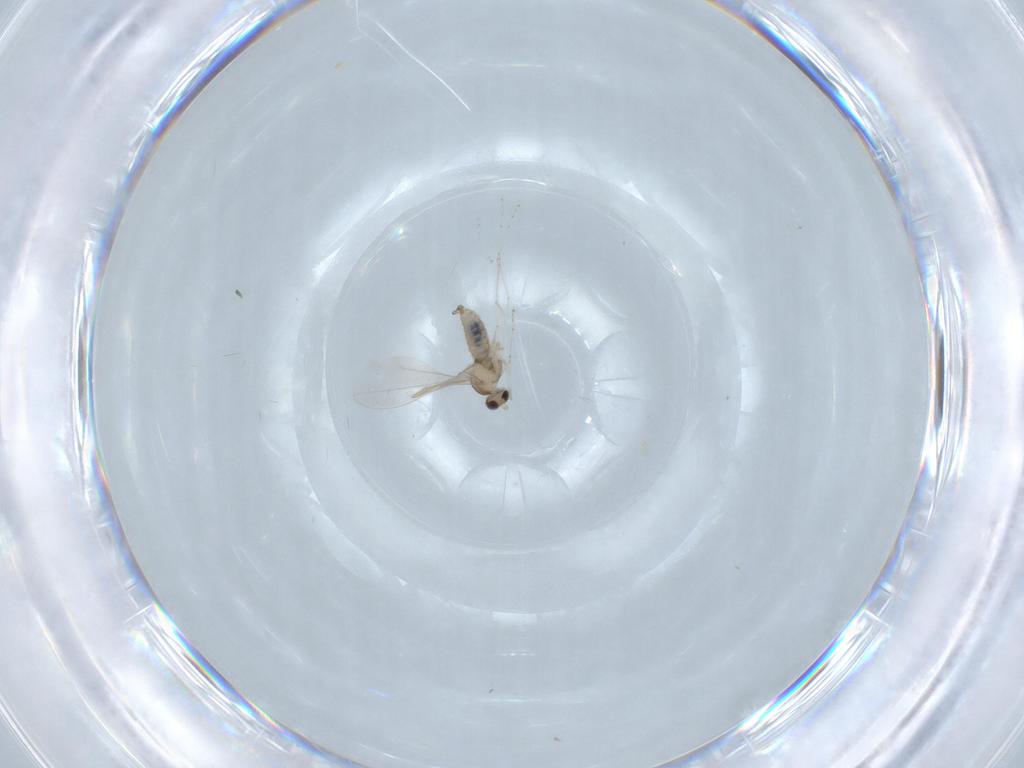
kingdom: Animalia
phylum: Arthropoda
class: Insecta
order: Diptera
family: Cecidomyiidae
